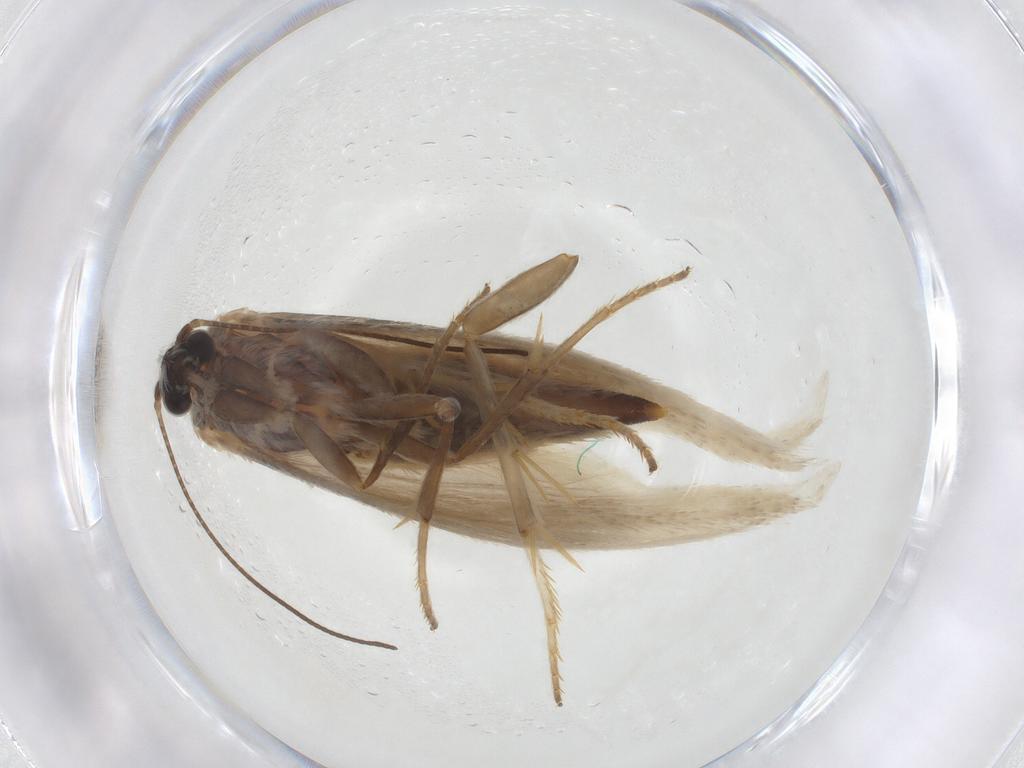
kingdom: Animalia
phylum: Arthropoda
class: Insecta
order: Lepidoptera
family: Tridentaformidae
